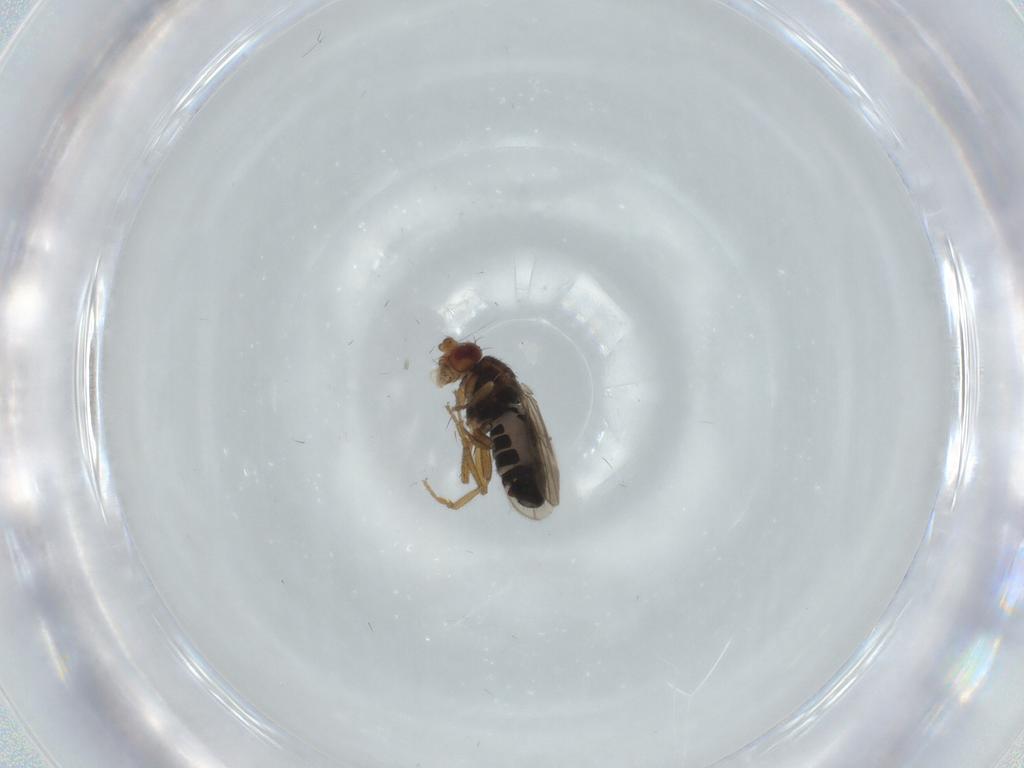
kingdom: Animalia
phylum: Arthropoda
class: Insecta
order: Diptera
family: Sphaeroceridae
